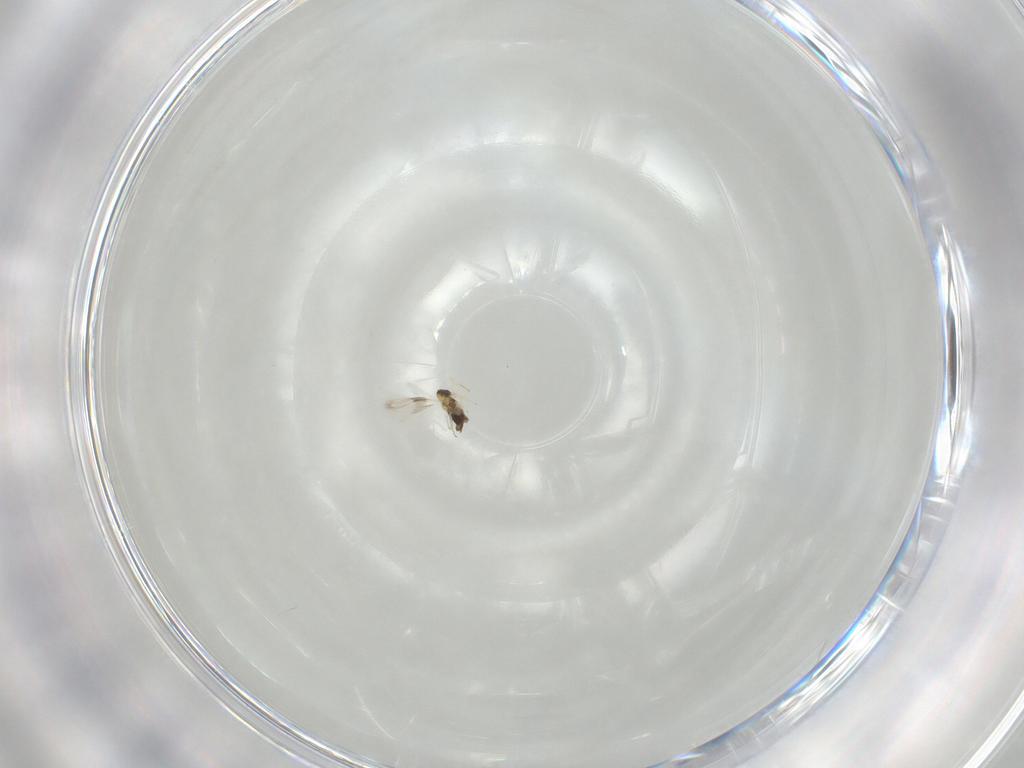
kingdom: Animalia
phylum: Arthropoda
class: Insecta
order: Hymenoptera
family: Trichogrammatidae
